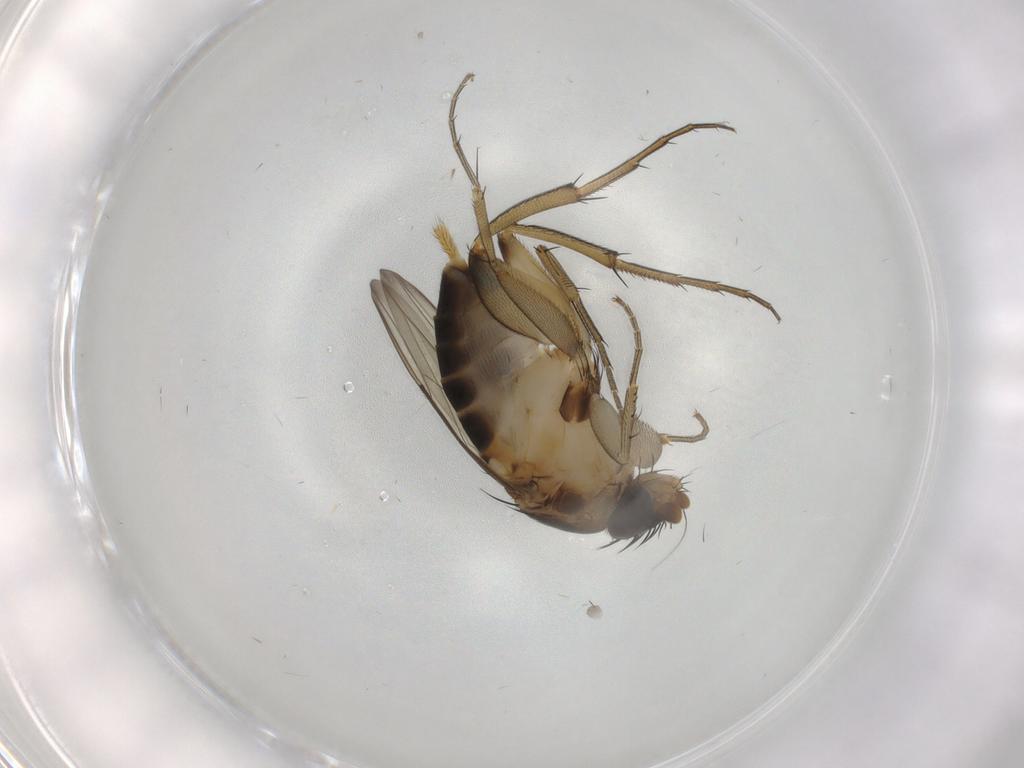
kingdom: Animalia
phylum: Arthropoda
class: Insecta
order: Diptera
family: Phoridae
